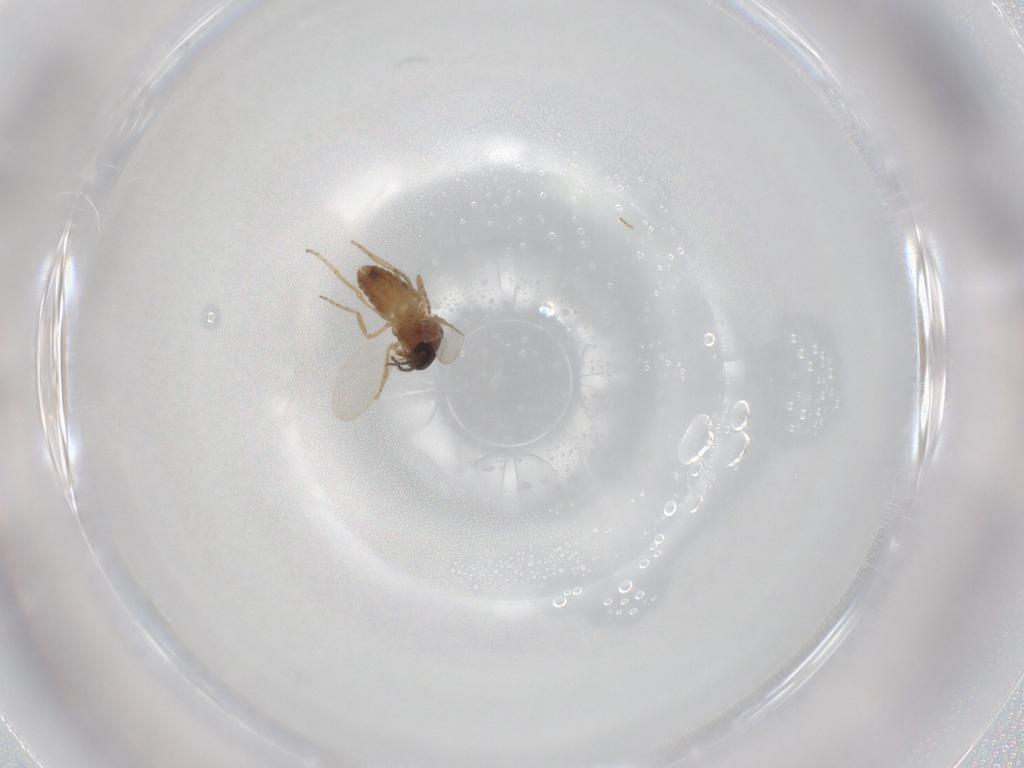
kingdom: Animalia
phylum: Arthropoda
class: Insecta
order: Diptera
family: Ceratopogonidae
